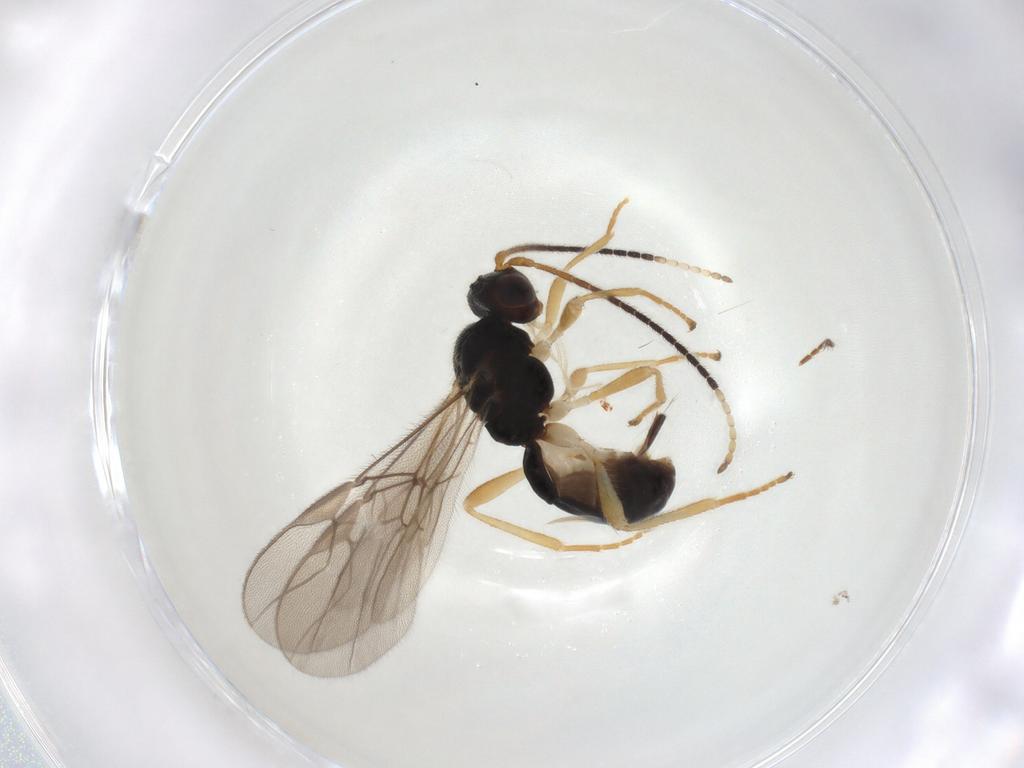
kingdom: Animalia
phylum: Arthropoda
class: Insecta
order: Hymenoptera
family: Braconidae
